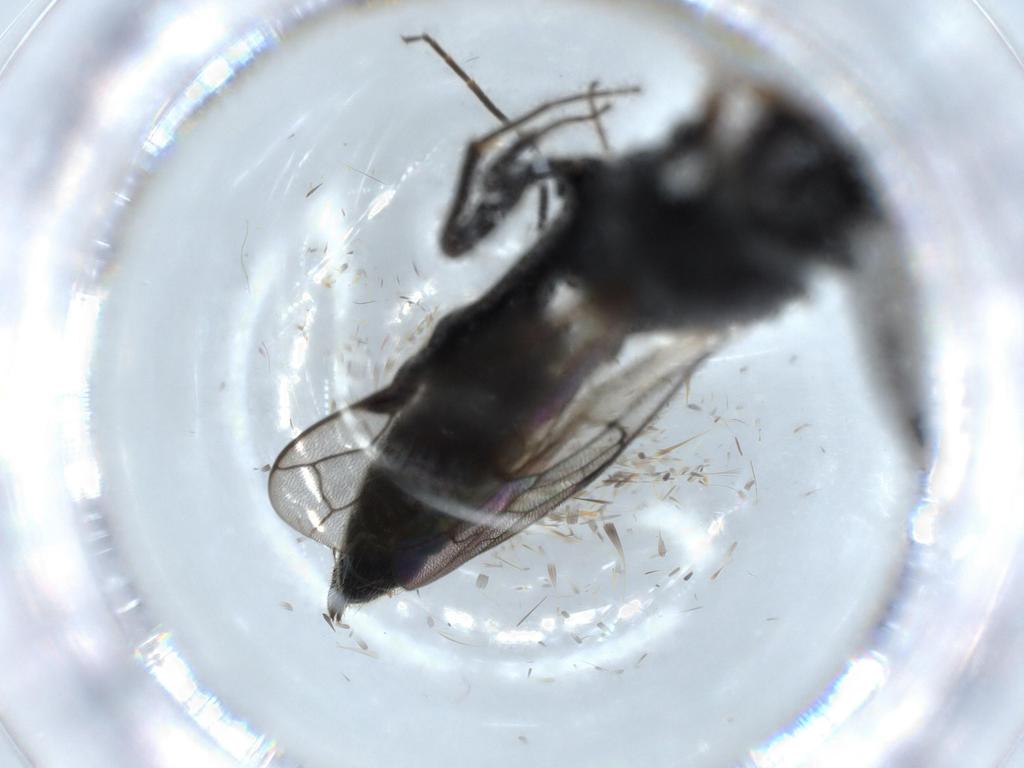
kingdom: Animalia
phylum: Arthropoda
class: Insecta
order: Hymenoptera
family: Thynnidae
